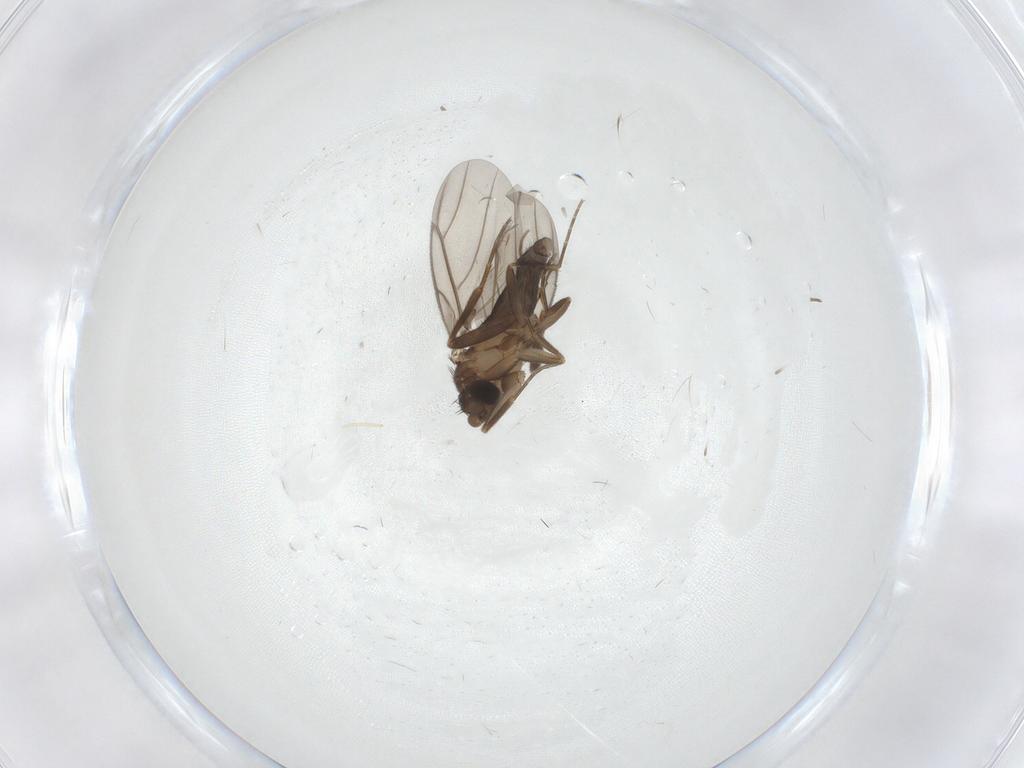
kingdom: Animalia
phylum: Arthropoda
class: Insecta
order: Diptera
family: Phoridae
